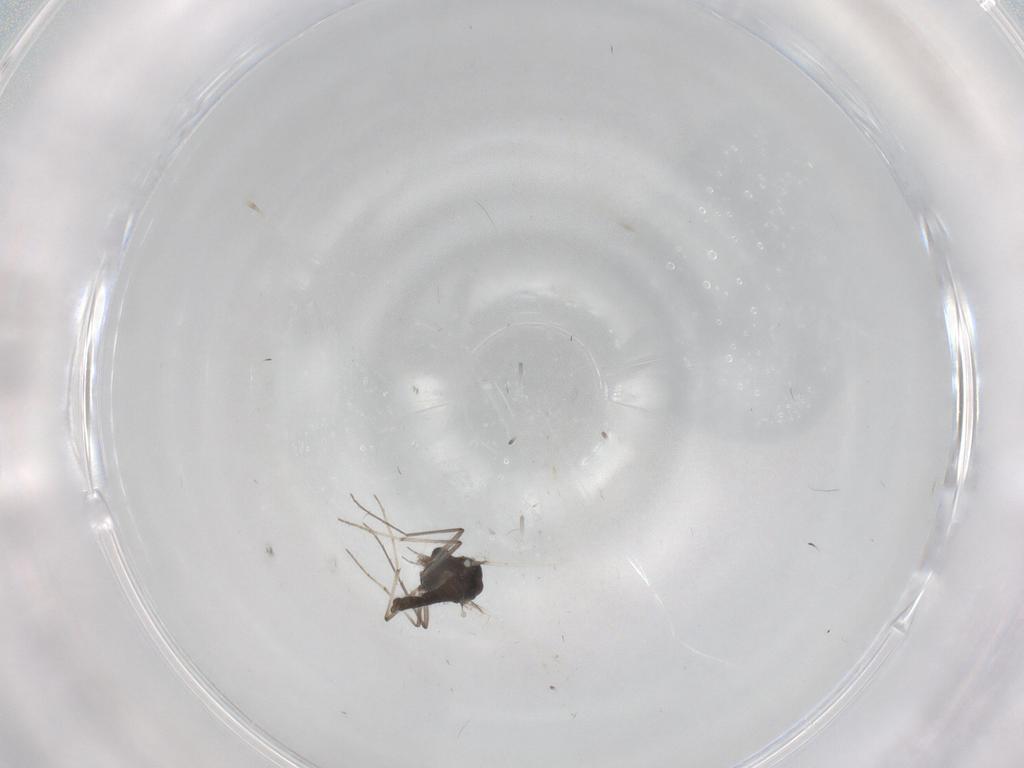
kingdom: Animalia
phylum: Arthropoda
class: Insecta
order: Diptera
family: Chironomidae
